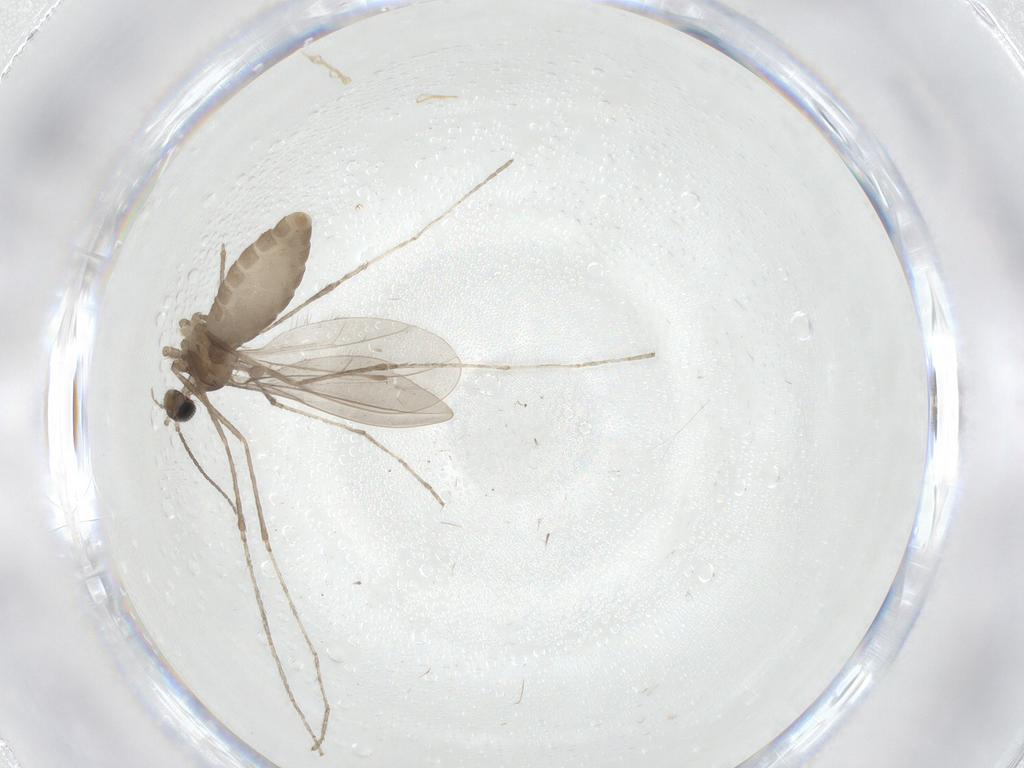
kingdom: Animalia
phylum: Arthropoda
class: Insecta
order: Diptera
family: Cecidomyiidae
